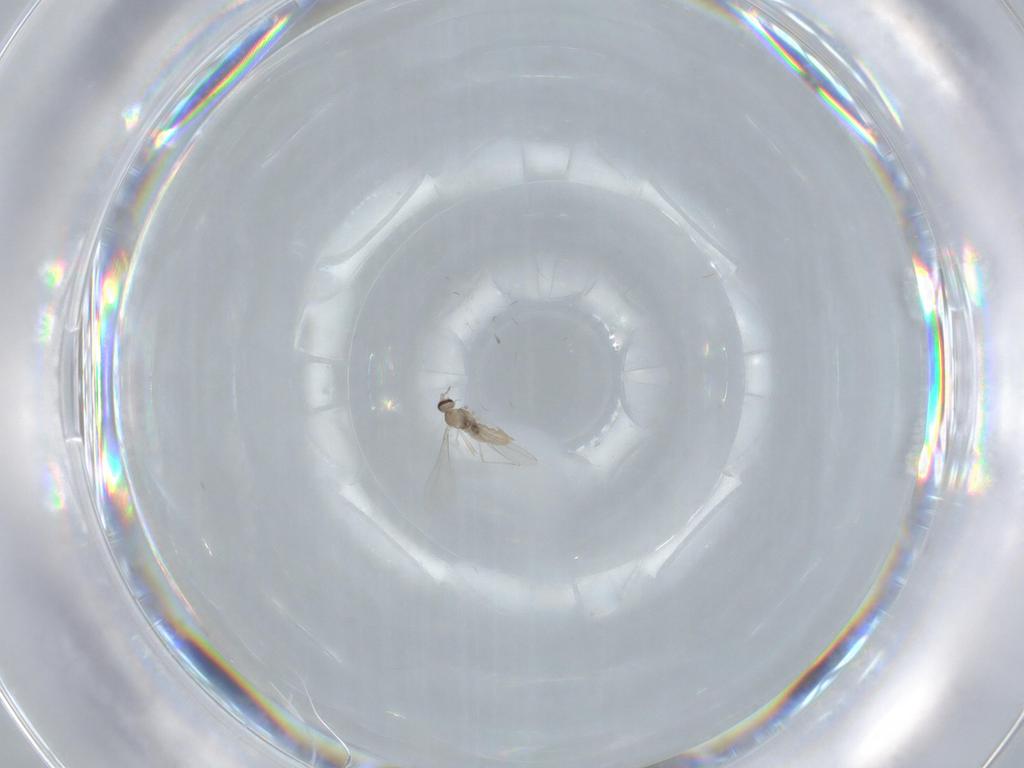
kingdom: Animalia
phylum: Arthropoda
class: Insecta
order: Diptera
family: Cecidomyiidae
